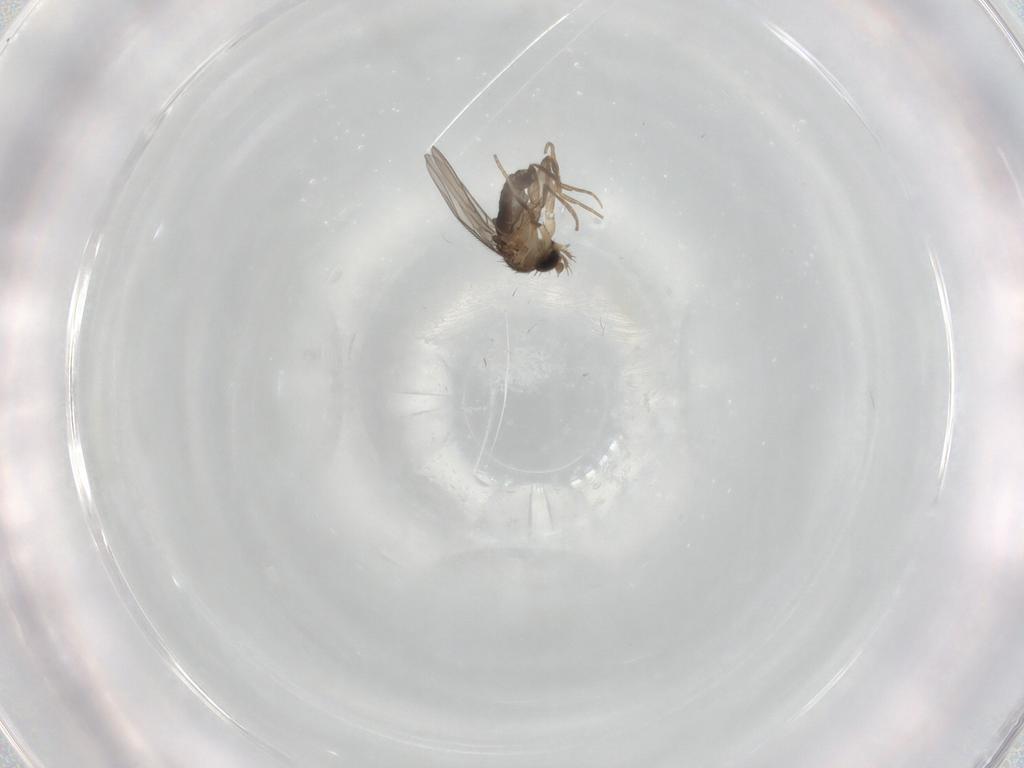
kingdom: Animalia
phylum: Arthropoda
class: Insecta
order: Diptera
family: Phoridae
